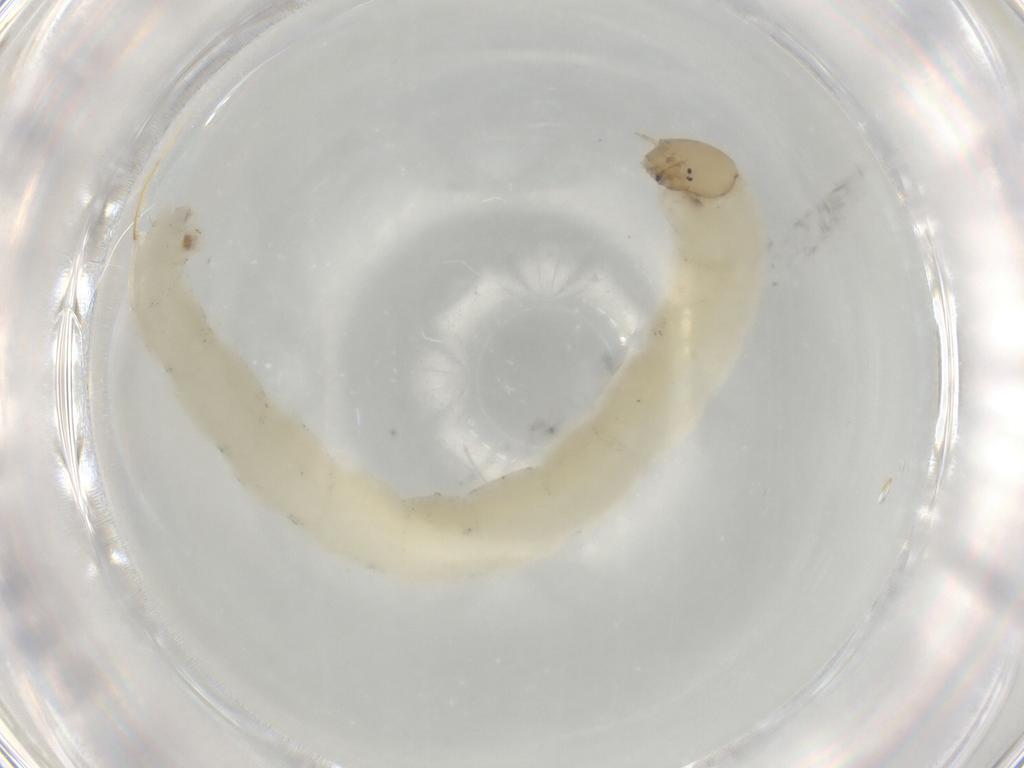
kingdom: Animalia
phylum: Arthropoda
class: Insecta
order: Diptera
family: Chironomidae
